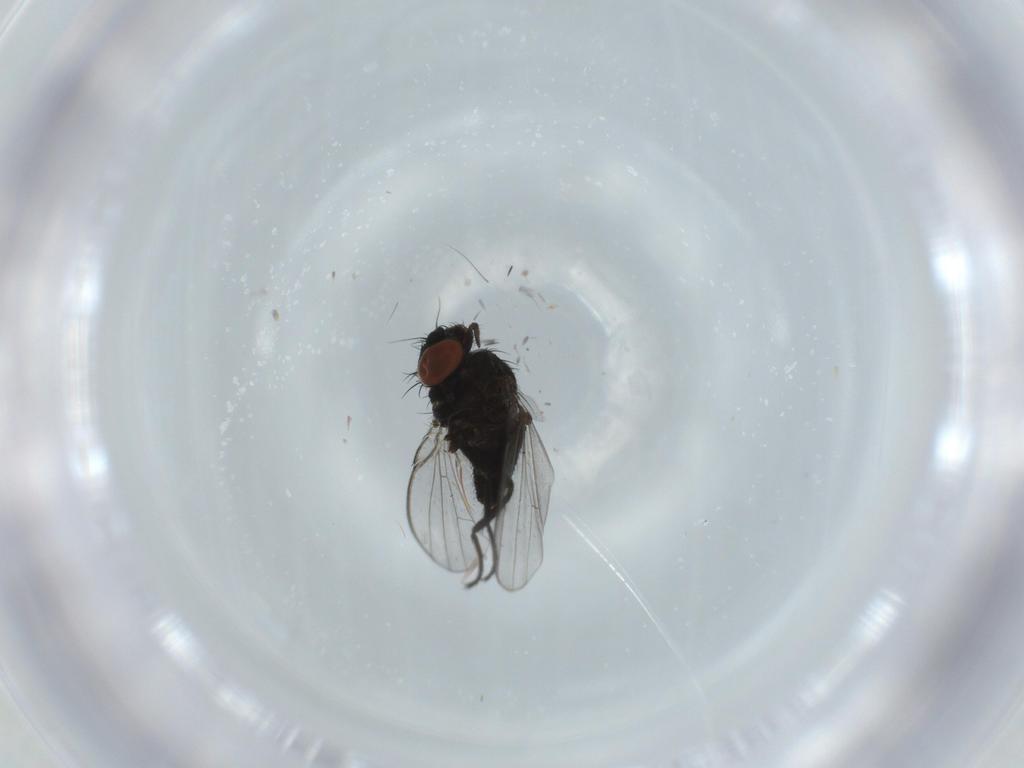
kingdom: Animalia
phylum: Arthropoda
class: Insecta
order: Diptera
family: Milichiidae
